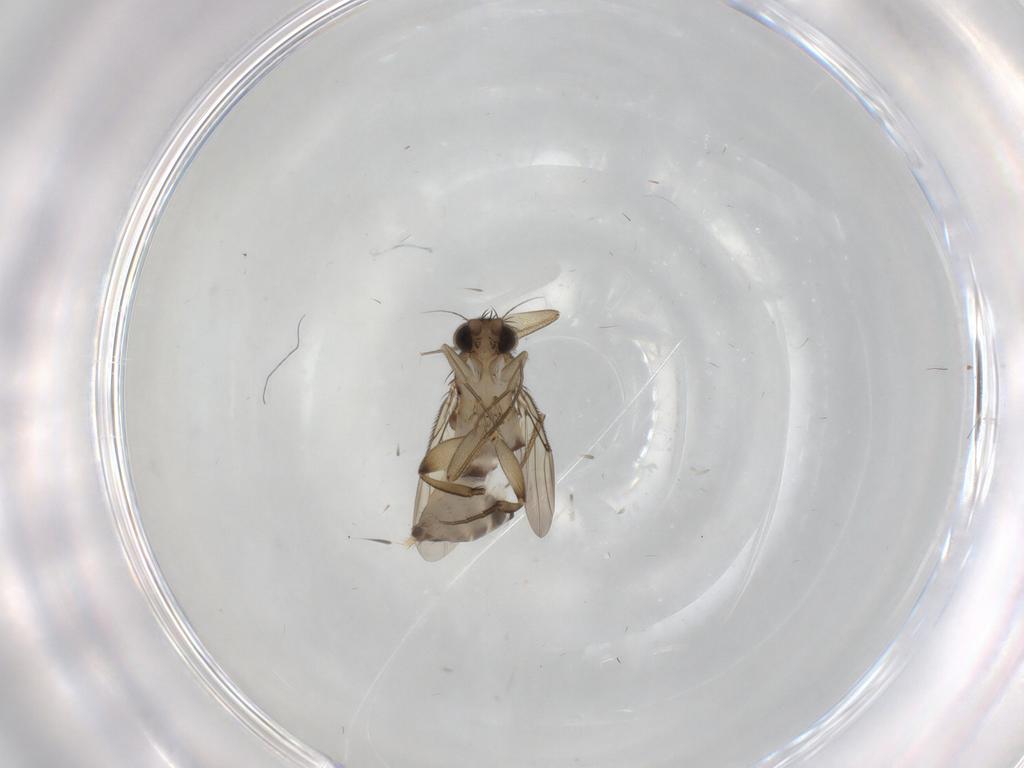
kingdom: Animalia
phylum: Arthropoda
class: Insecta
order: Diptera
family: Phoridae
